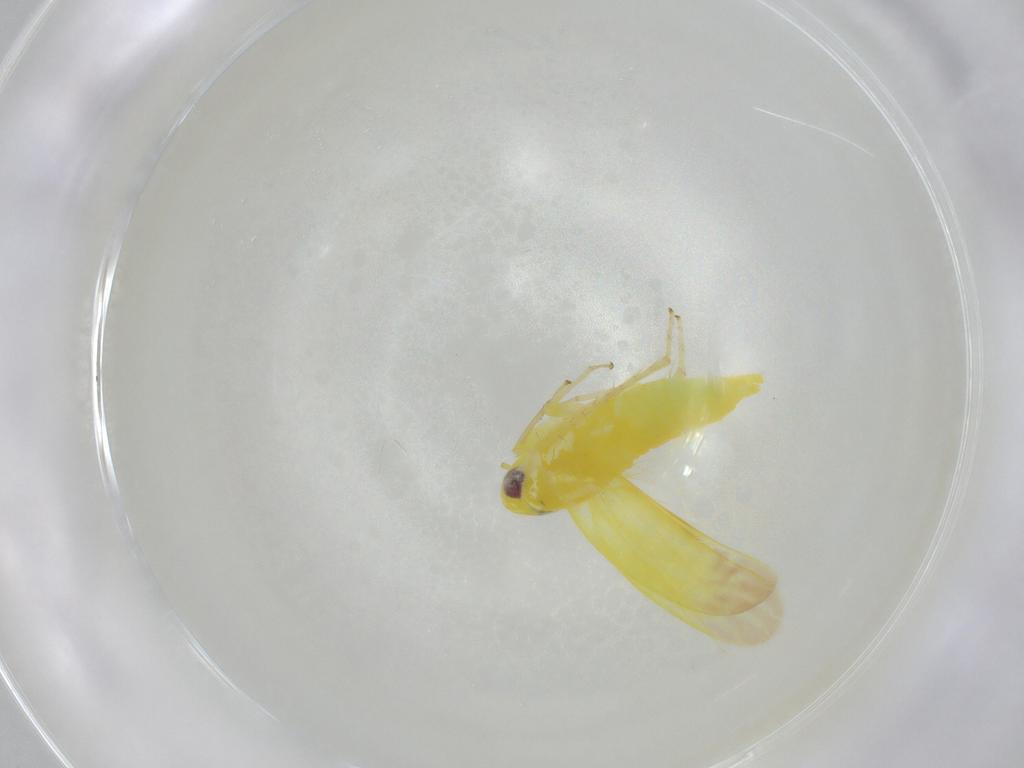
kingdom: Animalia
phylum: Arthropoda
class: Insecta
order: Hemiptera
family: Cicadellidae
